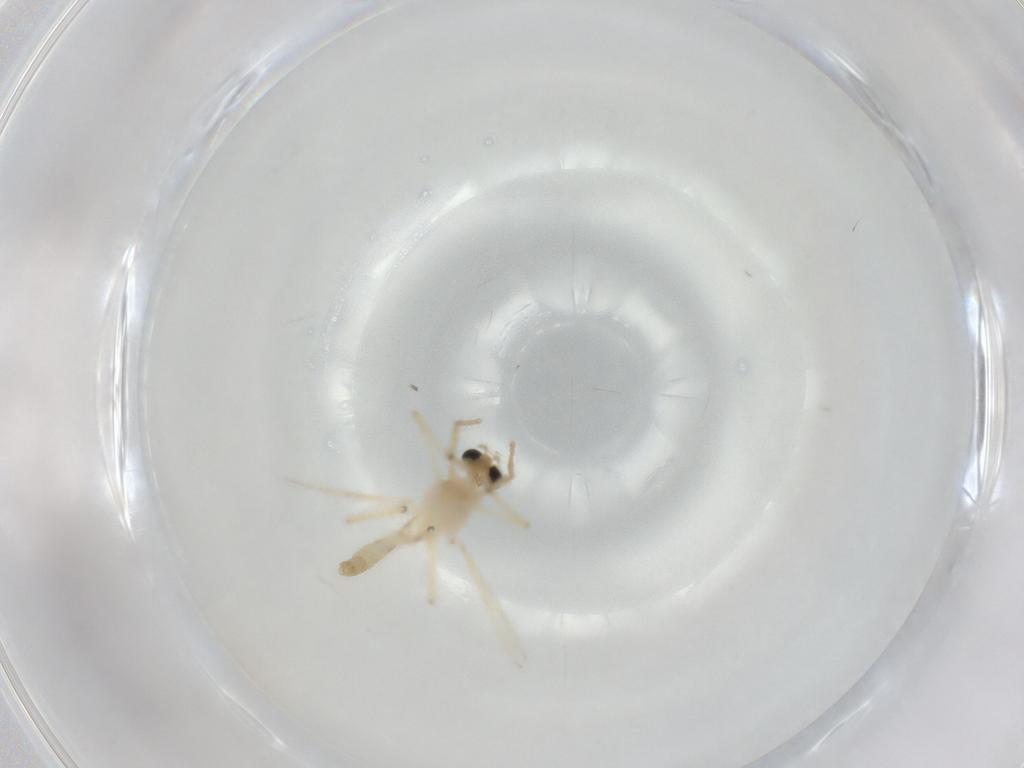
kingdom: Animalia
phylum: Arthropoda
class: Insecta
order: Diptera
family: Chironomidae
